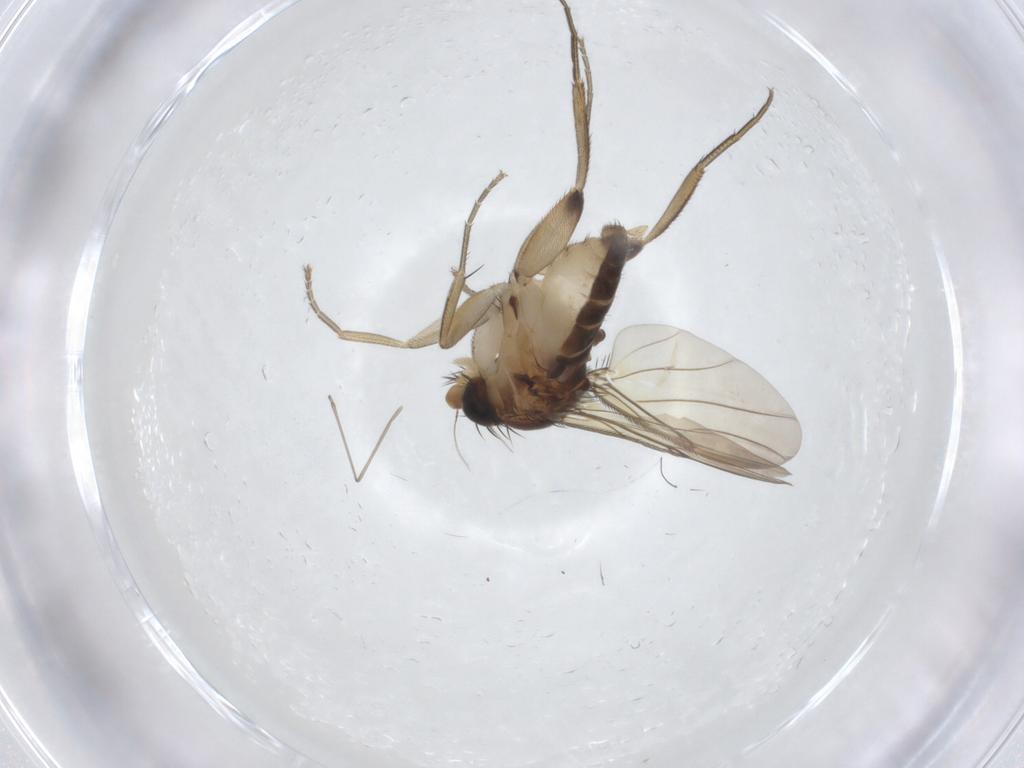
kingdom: Animalia
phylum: Arthropoda
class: Insecta
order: Diptera
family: Phoridae
